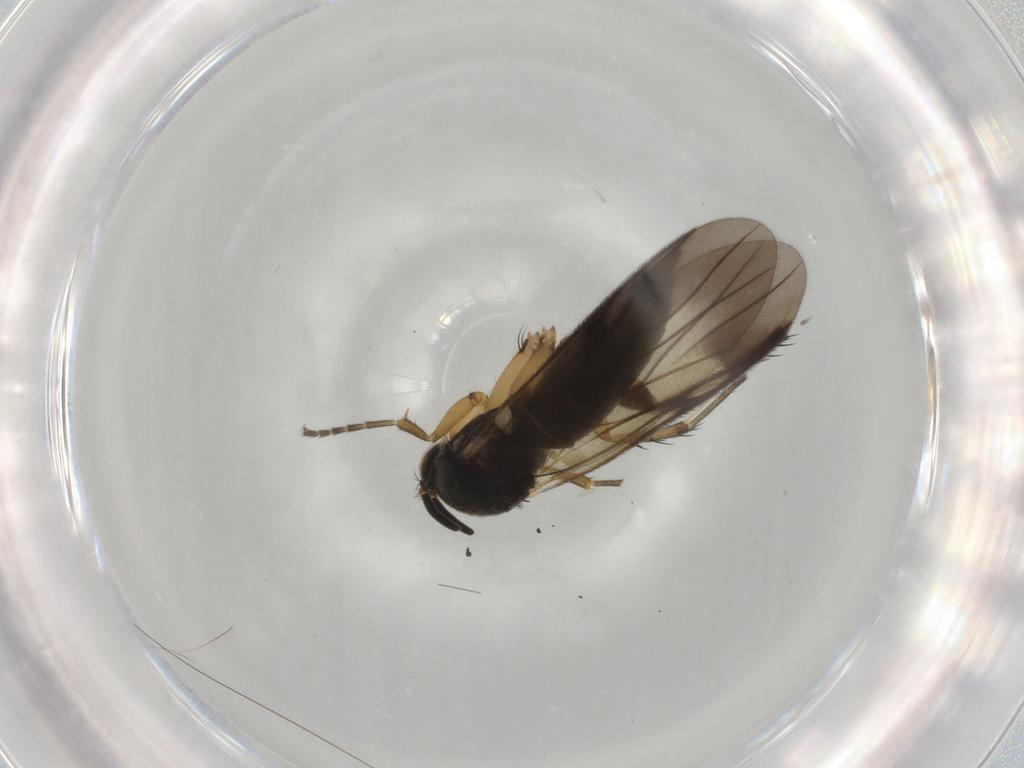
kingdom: Animalia
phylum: Arthropoda
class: Insecta
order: Diptera
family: Mycetophilidae
